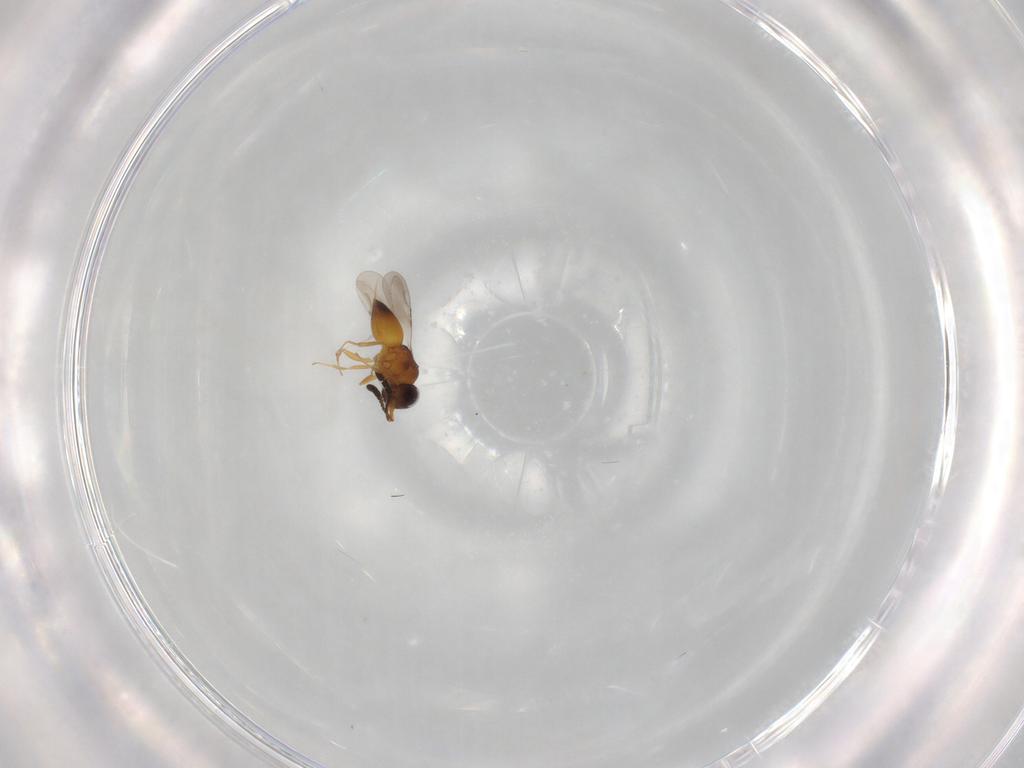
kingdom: Animalia
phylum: Arthropoda
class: Insecta
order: Hymenoptera
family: Ceraphronidae
